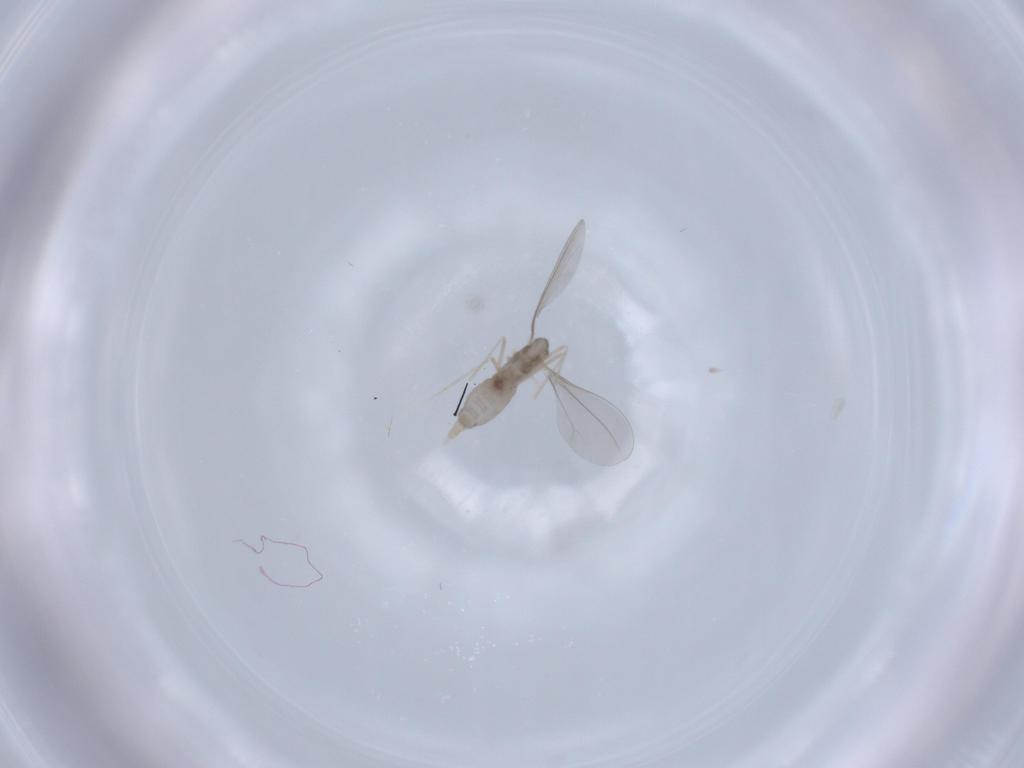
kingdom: Animalia
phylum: Arthropoda
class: Insecta
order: Diptera
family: Cecidomyiidae
